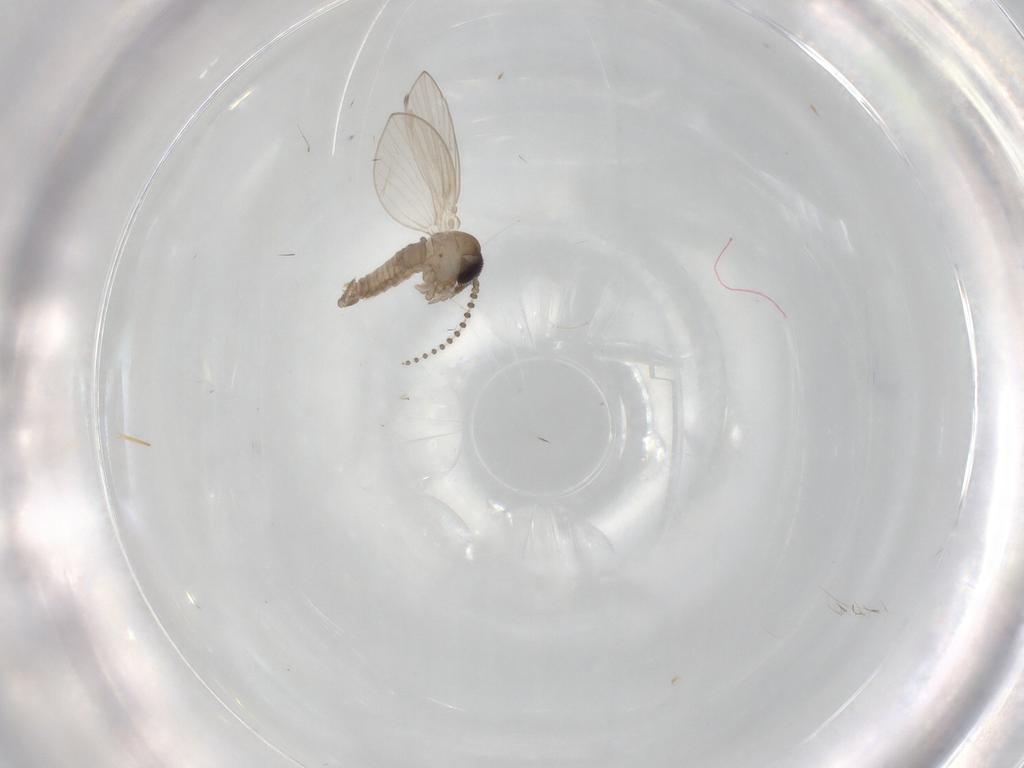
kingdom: Animalia
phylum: Arthropoda
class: Insecta
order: Diptera
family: Psychodidae
